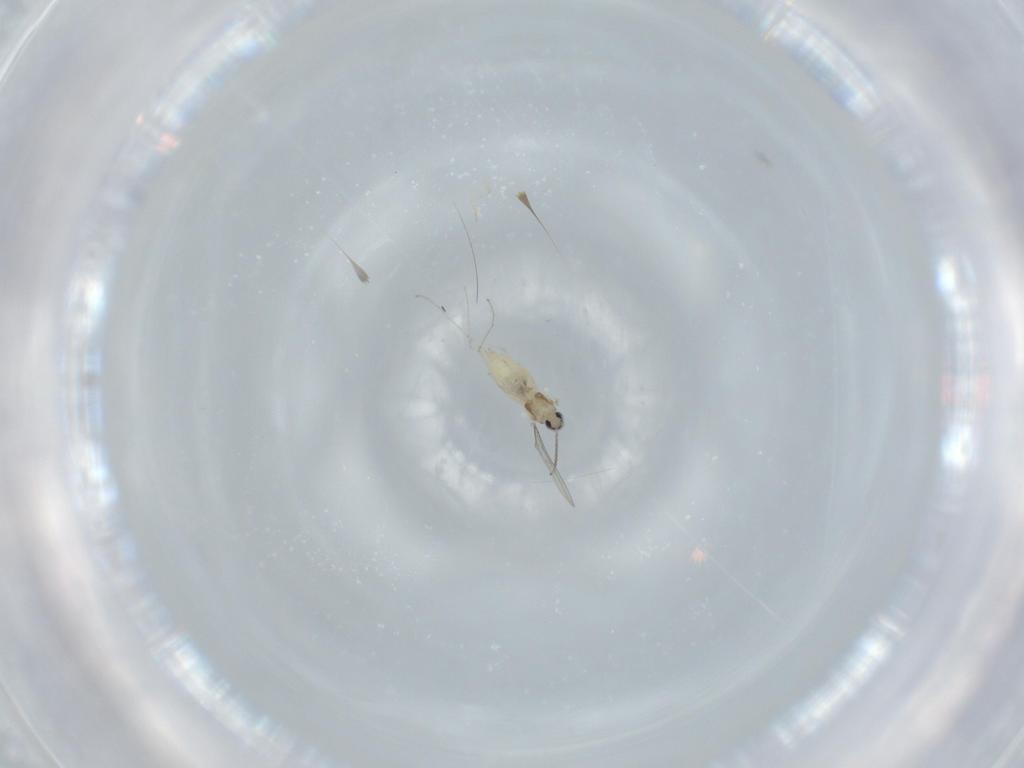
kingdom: Animalia
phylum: Arthropoda
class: Insecta
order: Diptera
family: Cecidomyiidae
